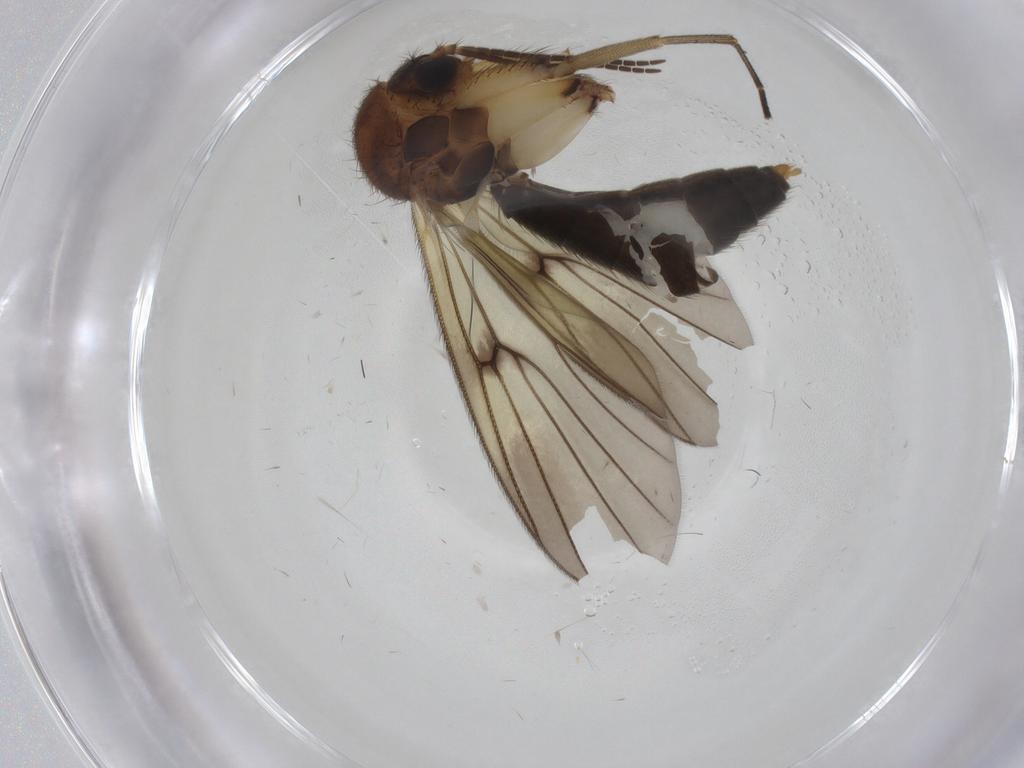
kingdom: Animalia
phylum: Arthropoda
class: Insecta
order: Diptera
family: Mycetophilidae
